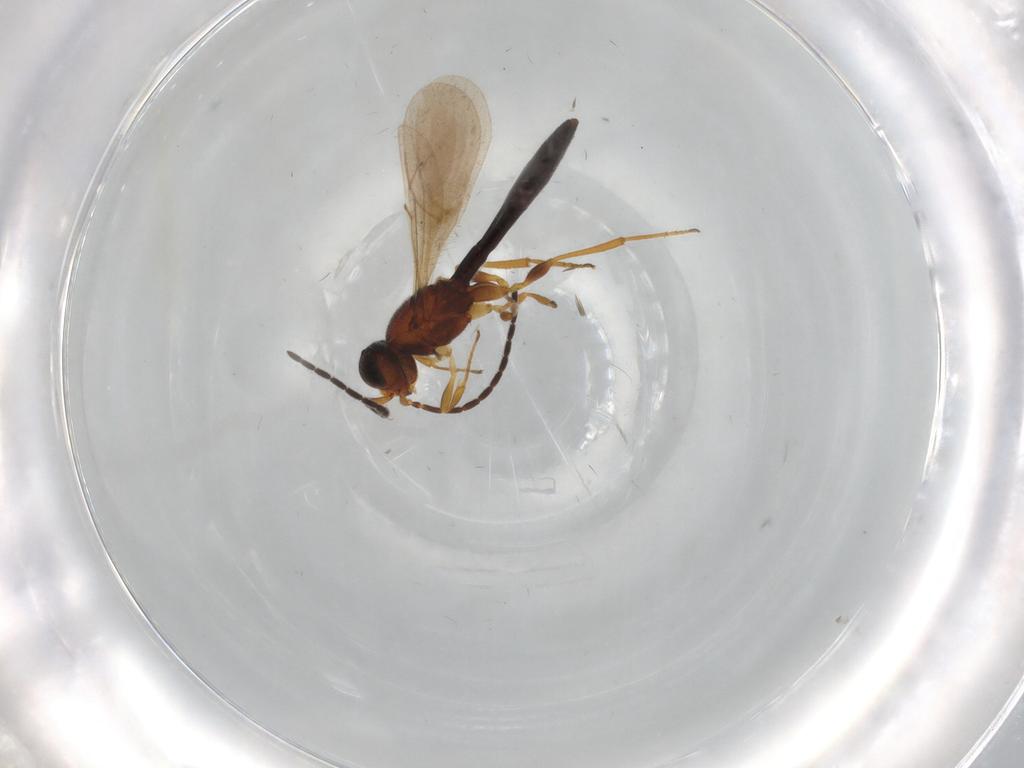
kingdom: Animalia
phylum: Arthropoda
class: Insecta
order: Hymenoptera
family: Scelionidae
